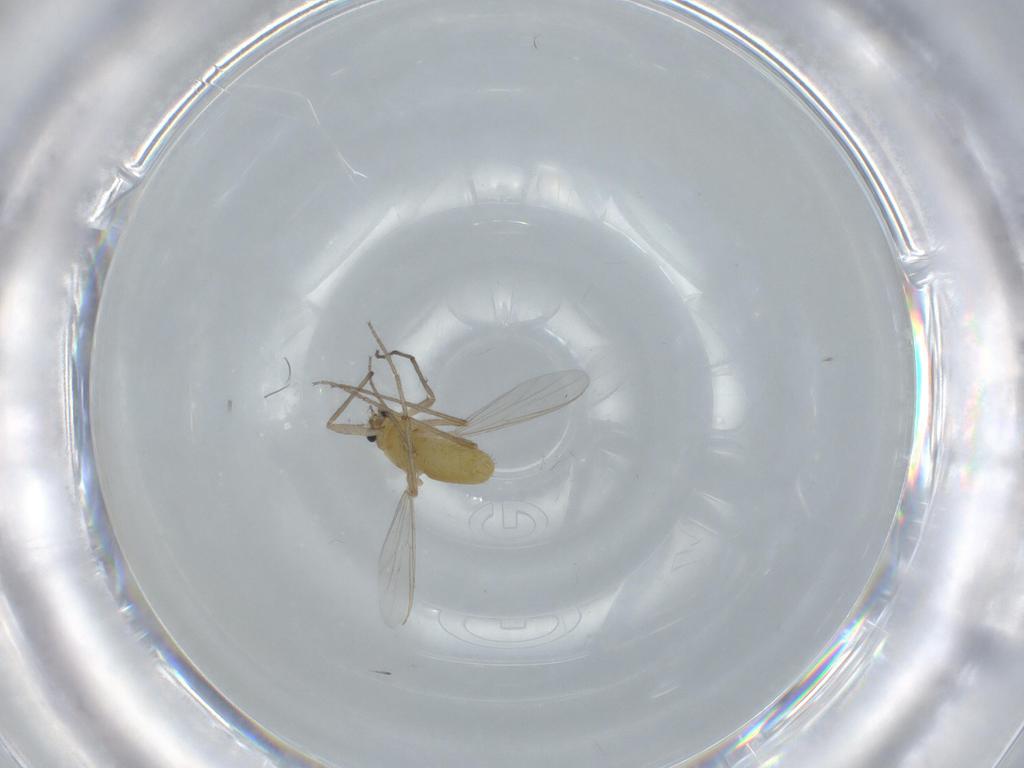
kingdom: Animalia
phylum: Arthropoda
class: Insecta
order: Diptera
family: Chironomidae
